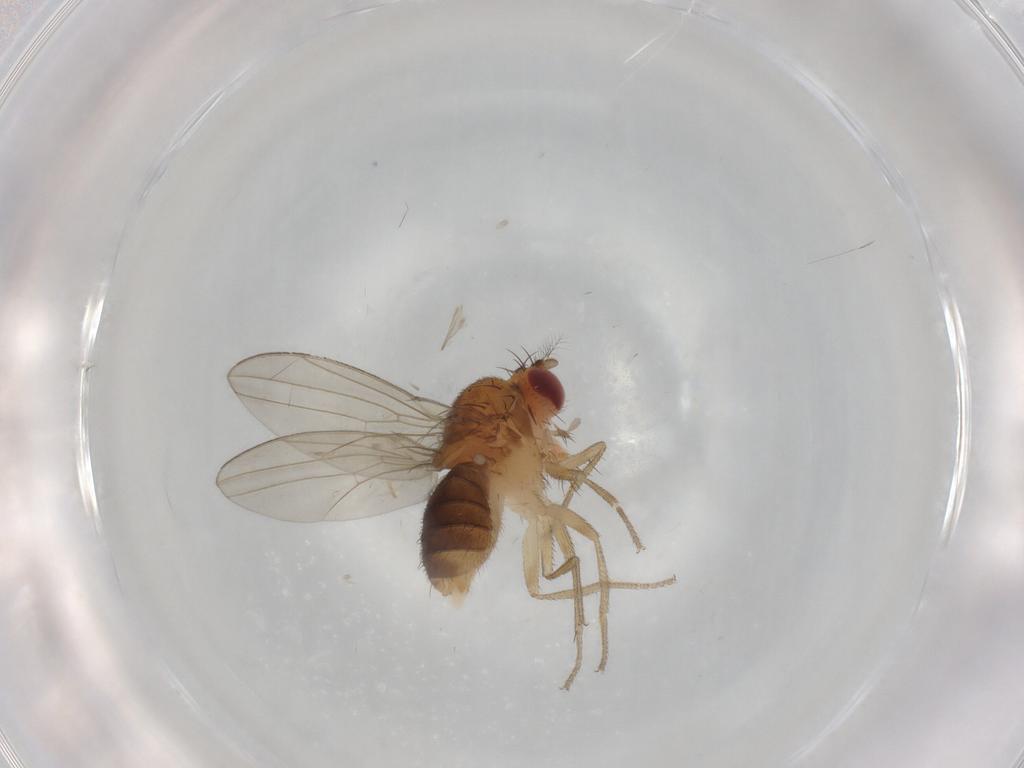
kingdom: Animalia
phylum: Arthropoda
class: Insecta
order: Diptera
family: Drosophilidae
